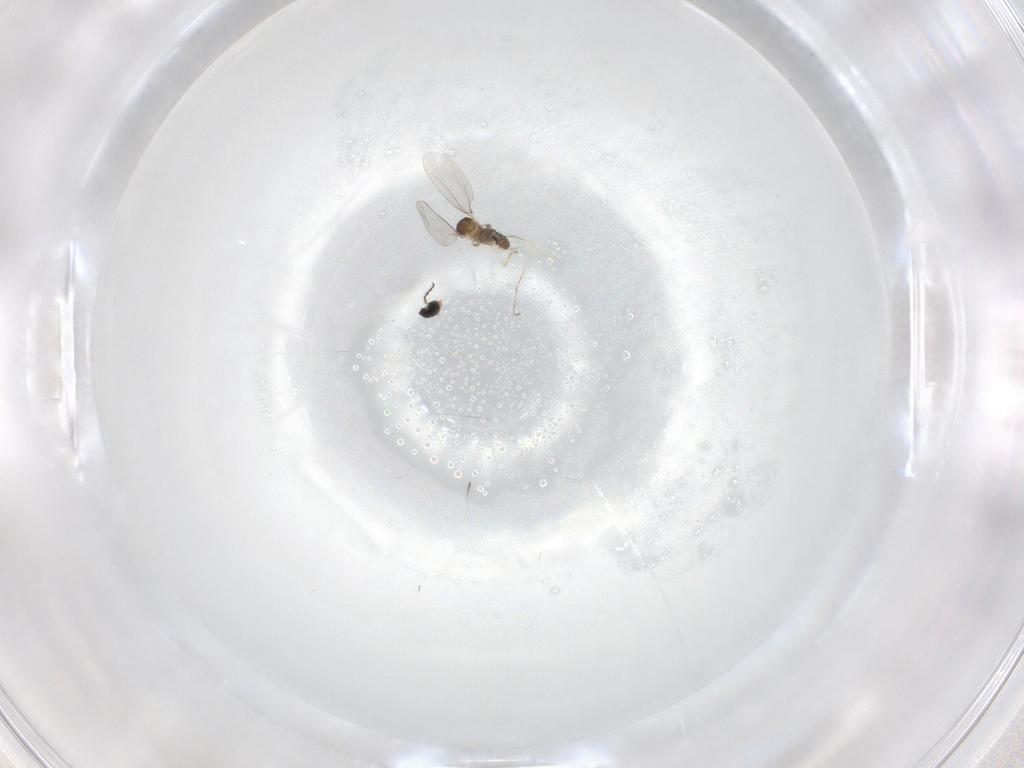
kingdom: Animalia
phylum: Arthropoda
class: Insecta
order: Diptera
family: Cecidomyiidae
